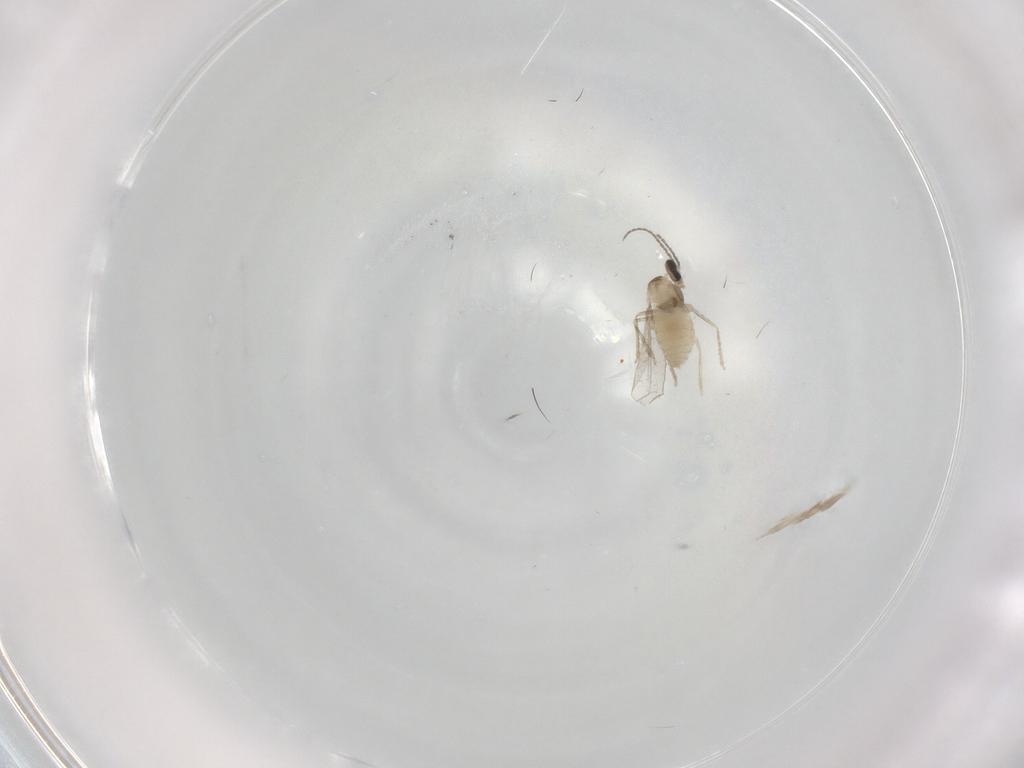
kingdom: Animalia
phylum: Arthropoda
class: Insecta
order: Diptera
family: Cecidomyiidae
